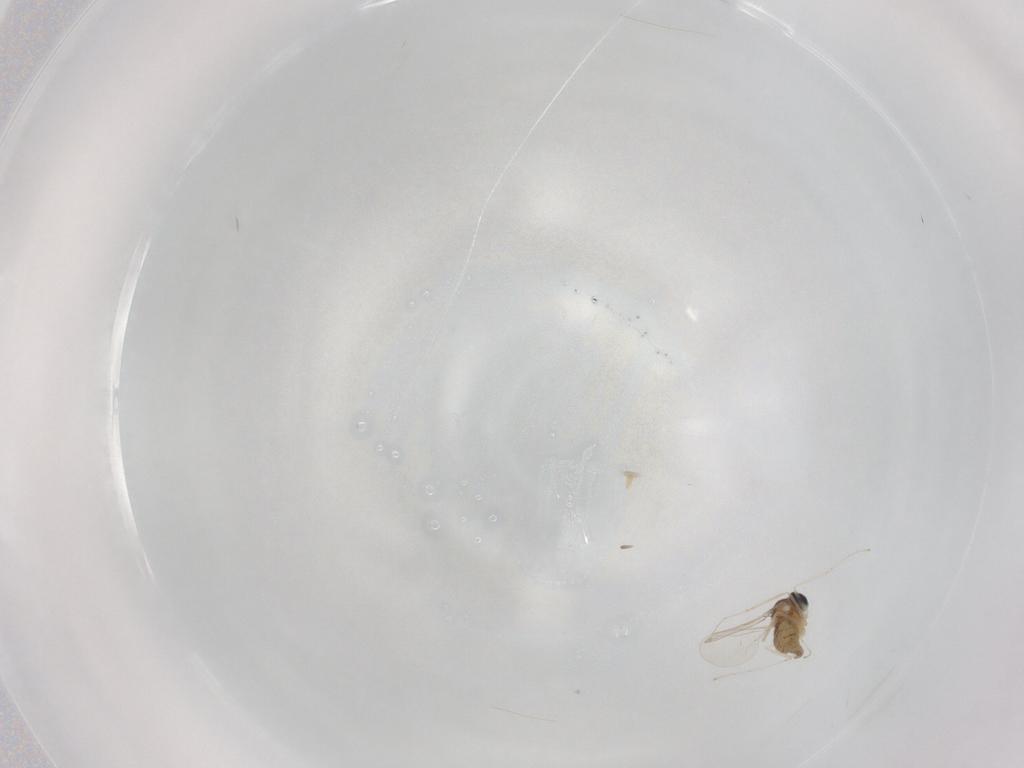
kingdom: Animalia
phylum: Arthropoda
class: Insecta
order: Diptera
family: Cecidomyiidae
